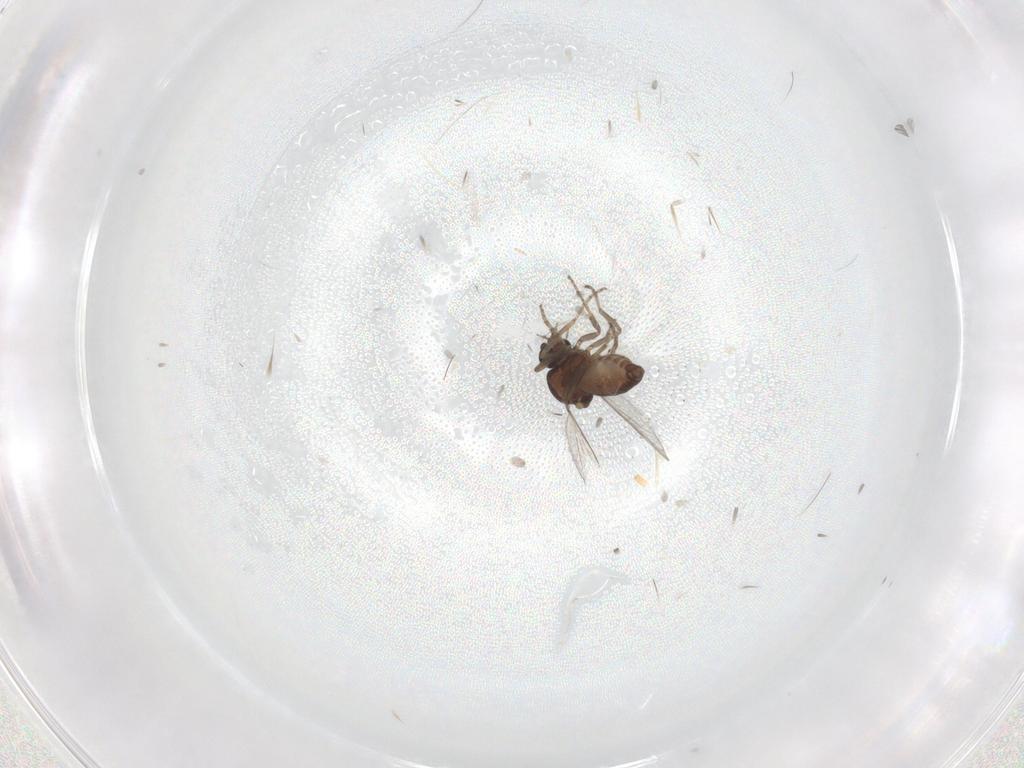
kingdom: Animalia
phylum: Arthropoda
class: Insecta
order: Diptera
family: Ceratopogonidae
